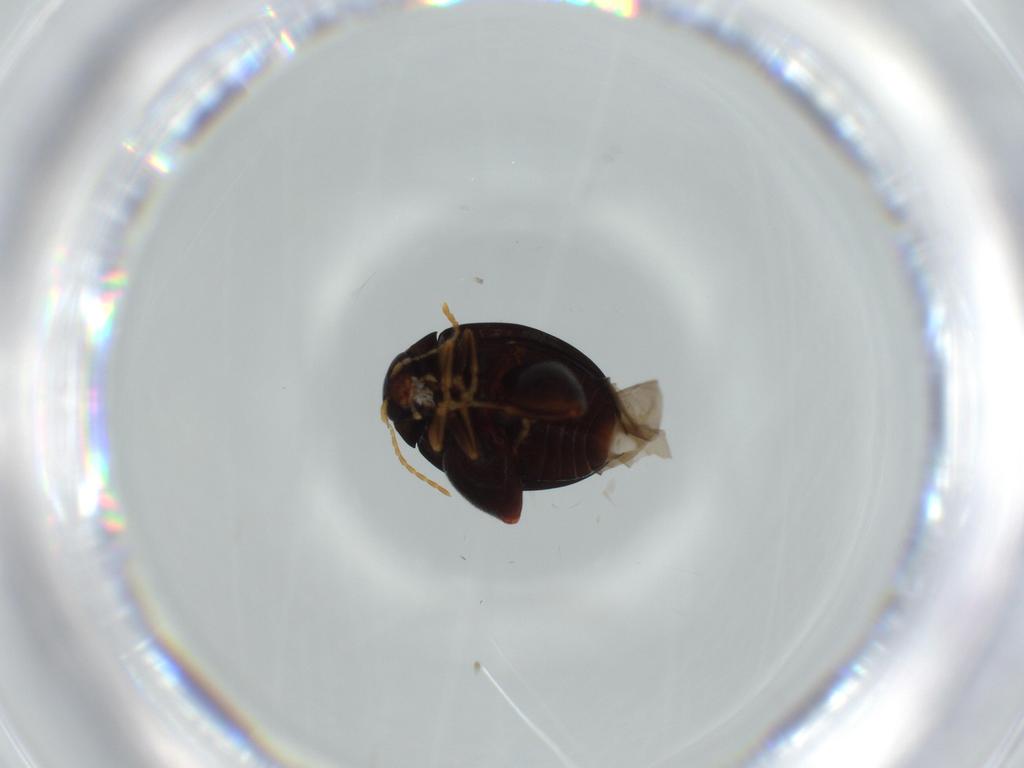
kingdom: Animalia
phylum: Arthropoda
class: Insecta
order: Coleoptera
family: Chrysomelidae
